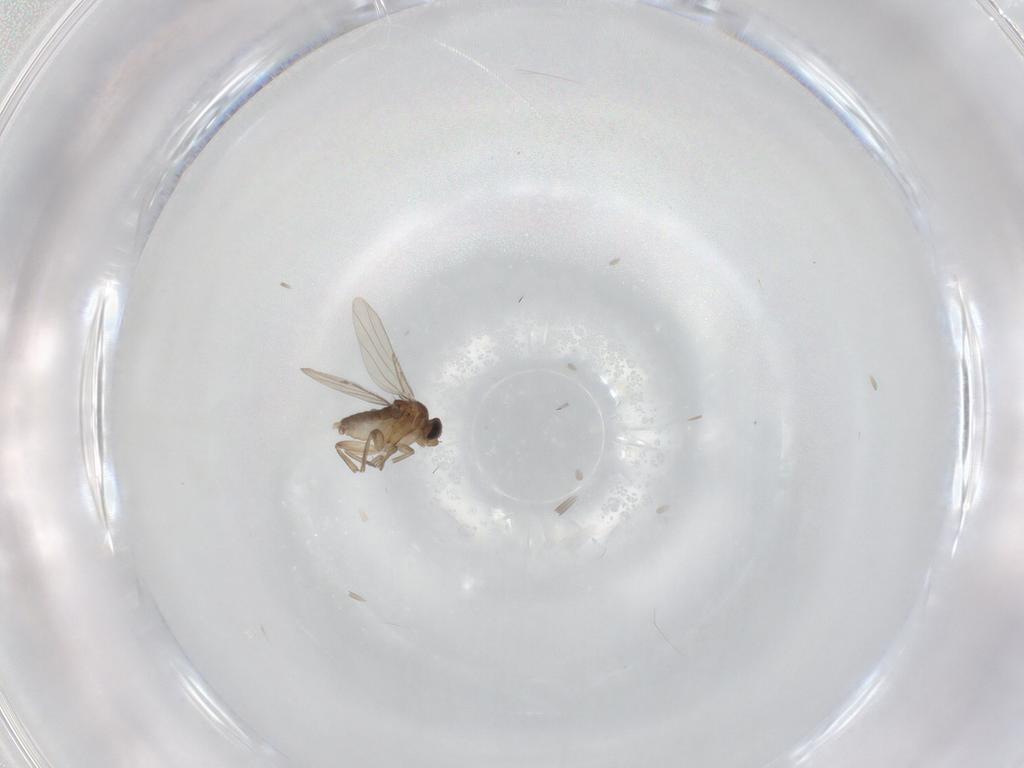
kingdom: Animalia
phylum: Arthropoda
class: Insecta
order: Diptera
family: Phoridae
